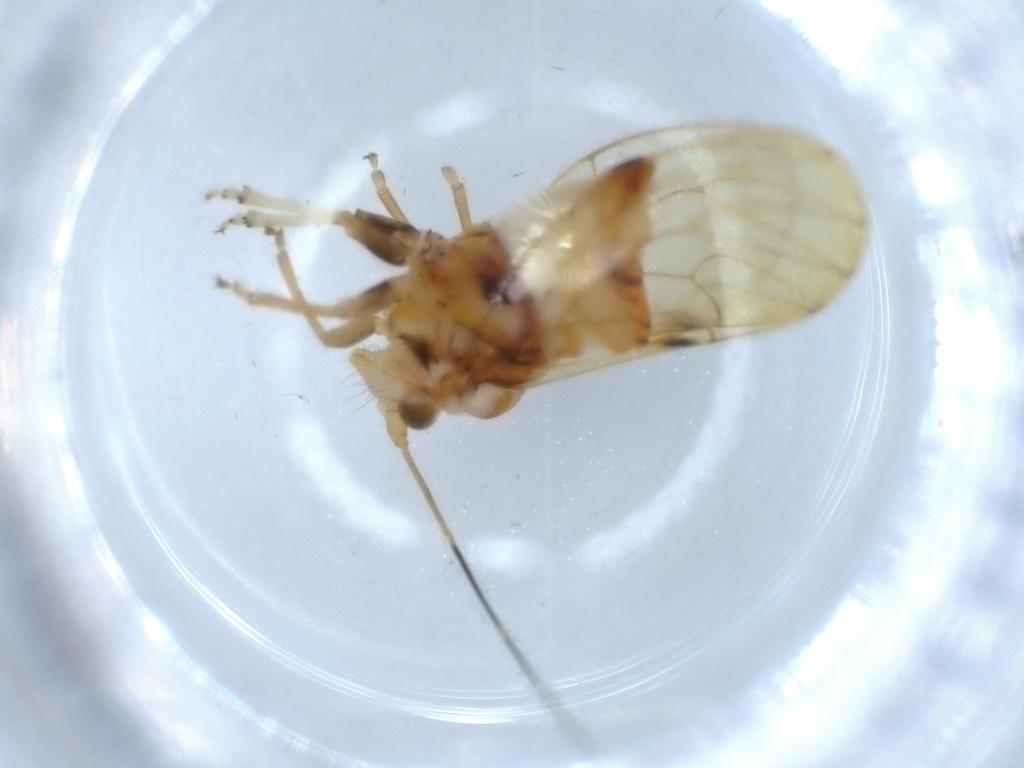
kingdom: Animalia
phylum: Arthropoda
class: Insecta
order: Hemiptera
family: Psyllidae
